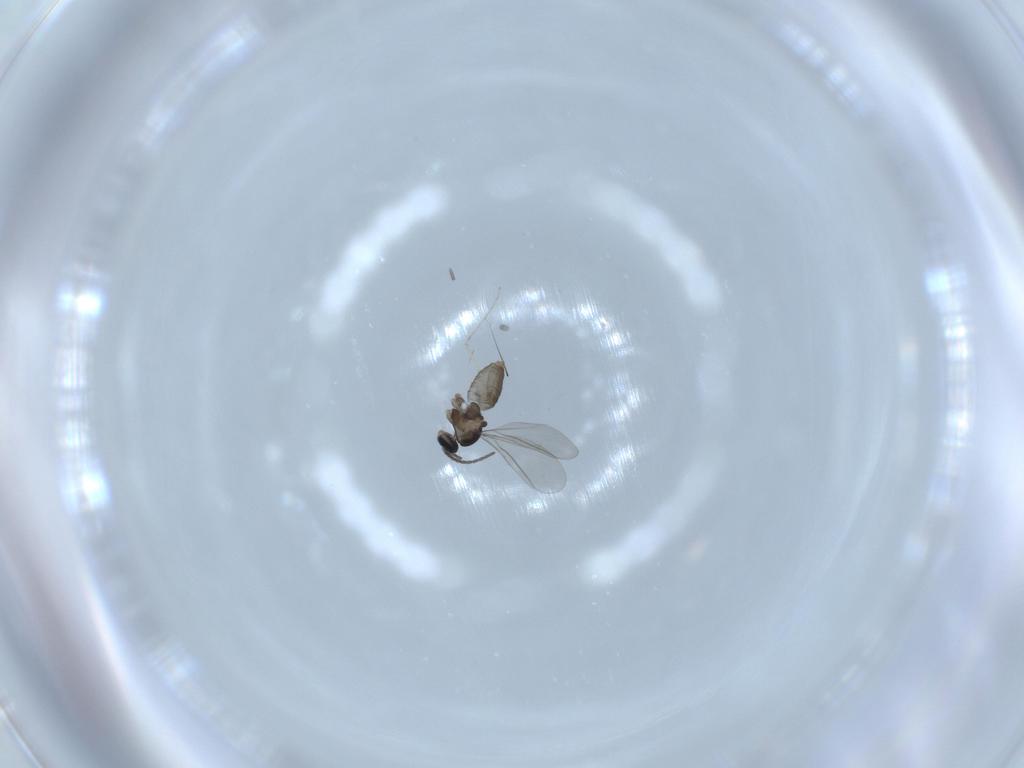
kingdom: Animalia
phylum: Arthropoda
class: Insecta
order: Diptera
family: Cecidomyiidae
